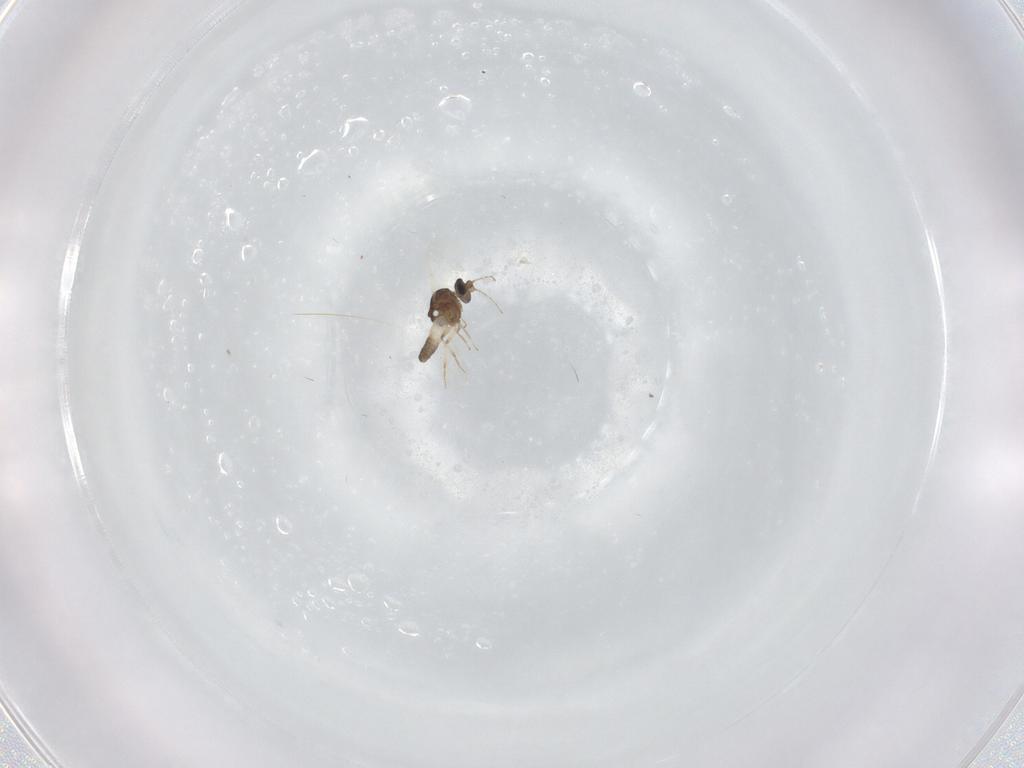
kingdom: Animalia
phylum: Arthropoda
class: Insecta
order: Diptera
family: Ceratopogonidae
